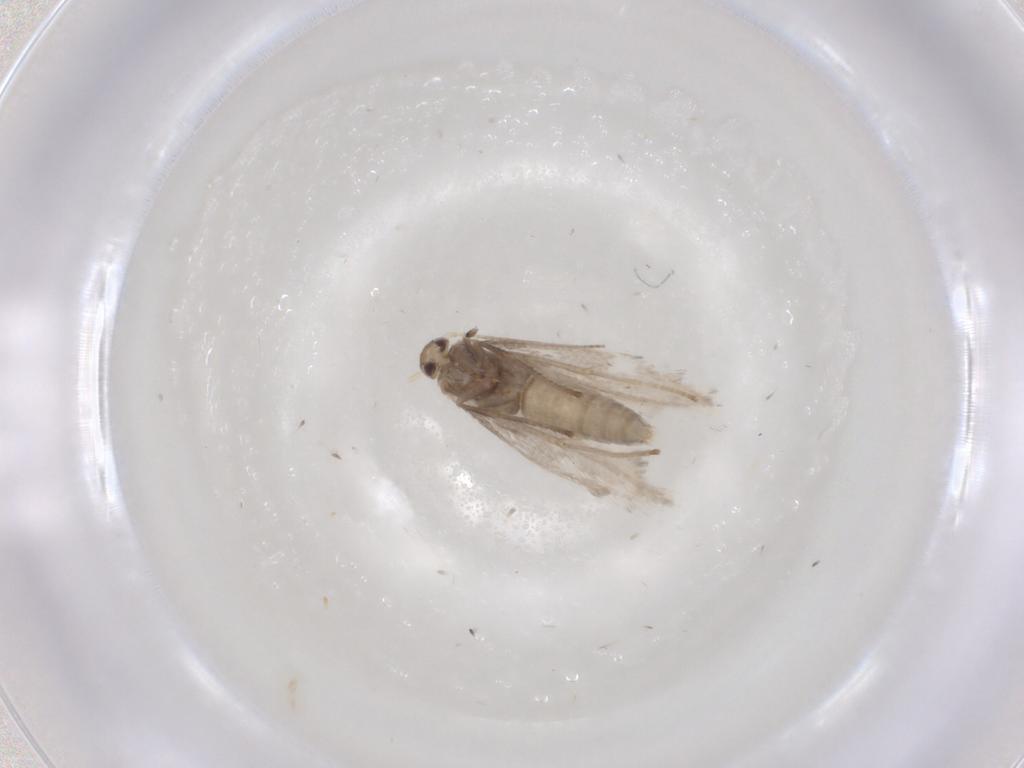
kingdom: Animalia
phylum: Arthropoda
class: Insecta
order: Lepidoptera
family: Gracillariidae
